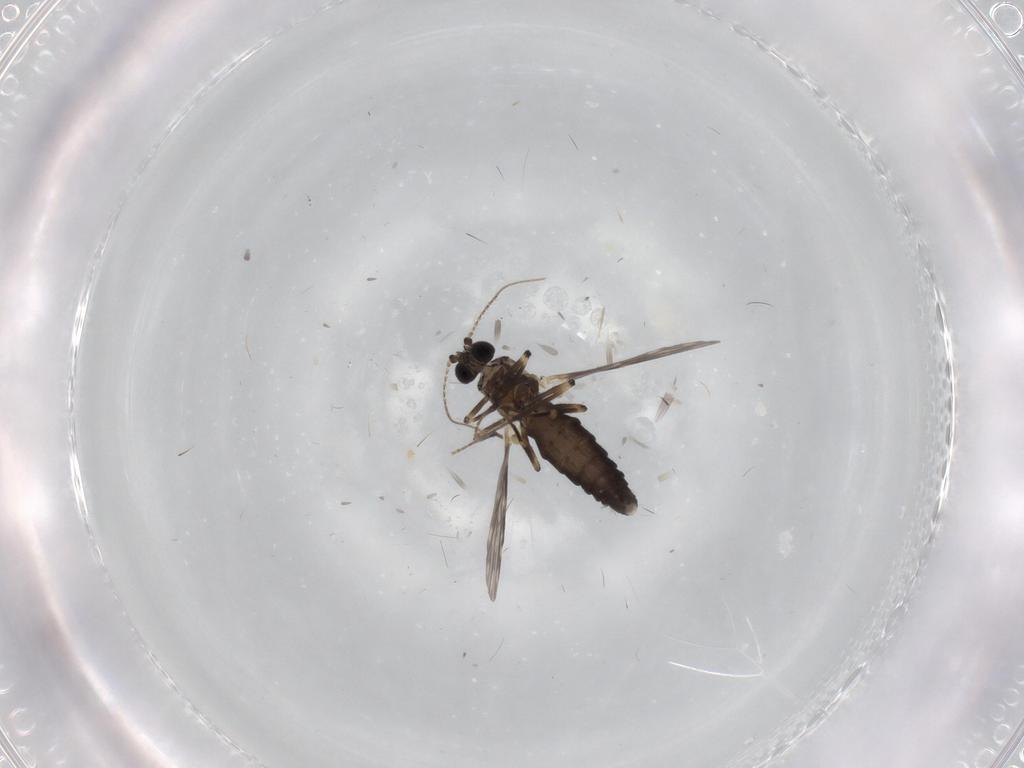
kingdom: Animalia
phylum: Arthropoda
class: Insecta
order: Diptera
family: Ceratopogonidae
